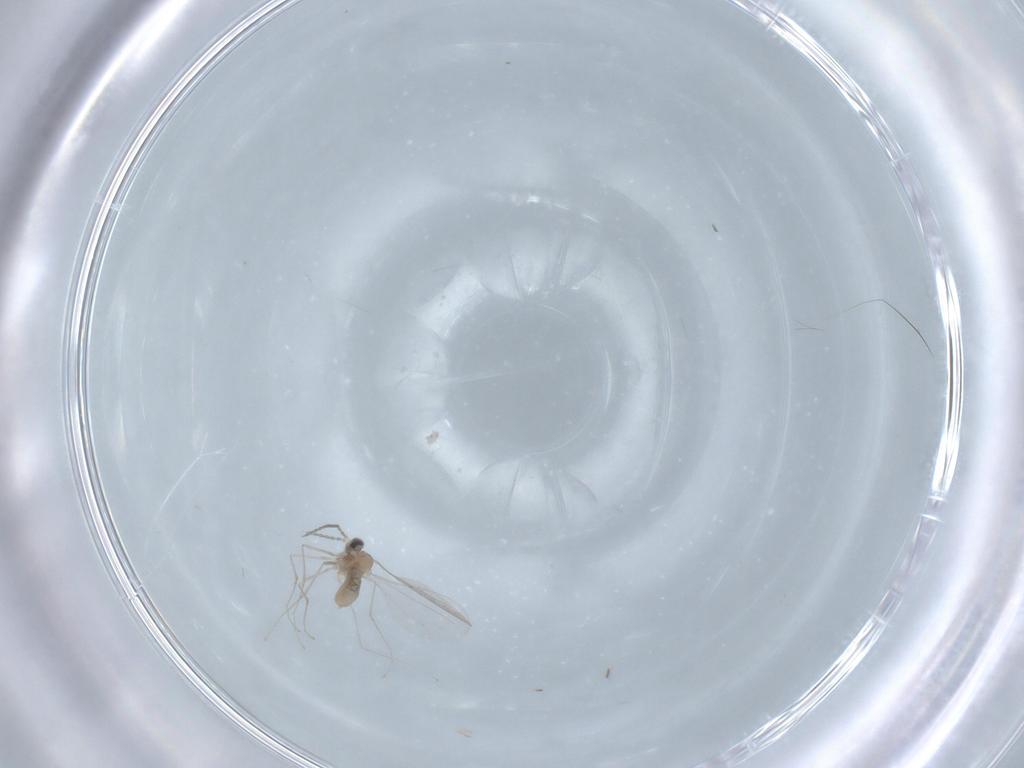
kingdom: Animalia
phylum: Arthropoda
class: Insecta
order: Diptera
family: Psychodidae
